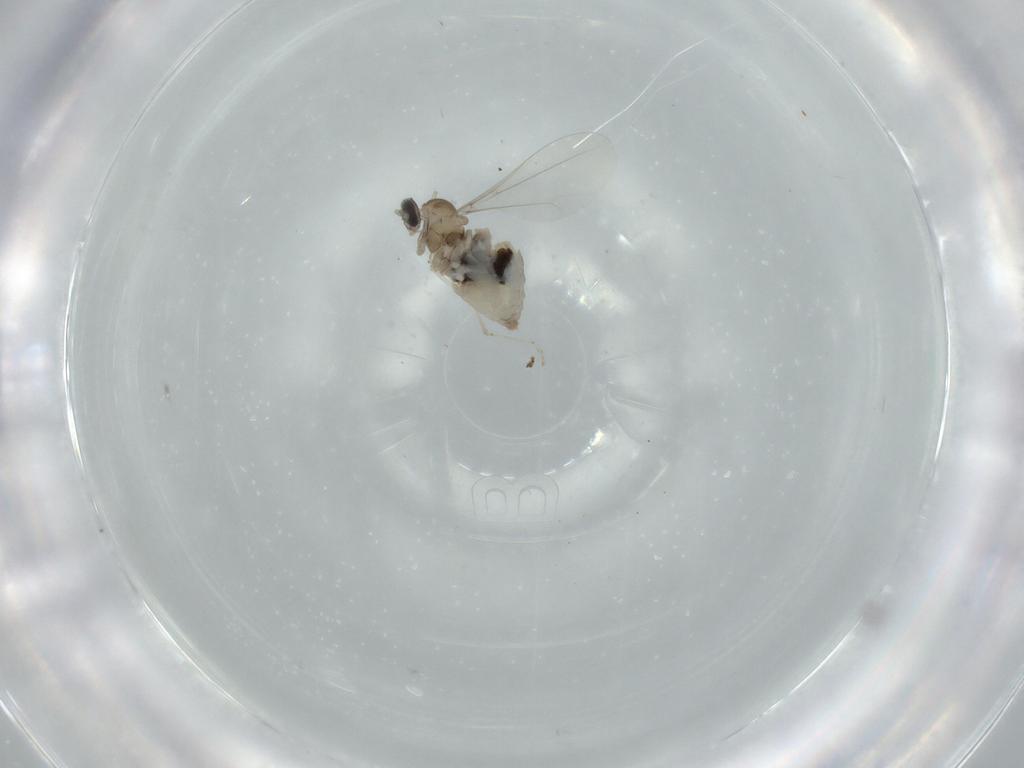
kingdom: Animalia
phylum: Arthropoda
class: Insecta
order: Diptera
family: Cecidomyiidae
